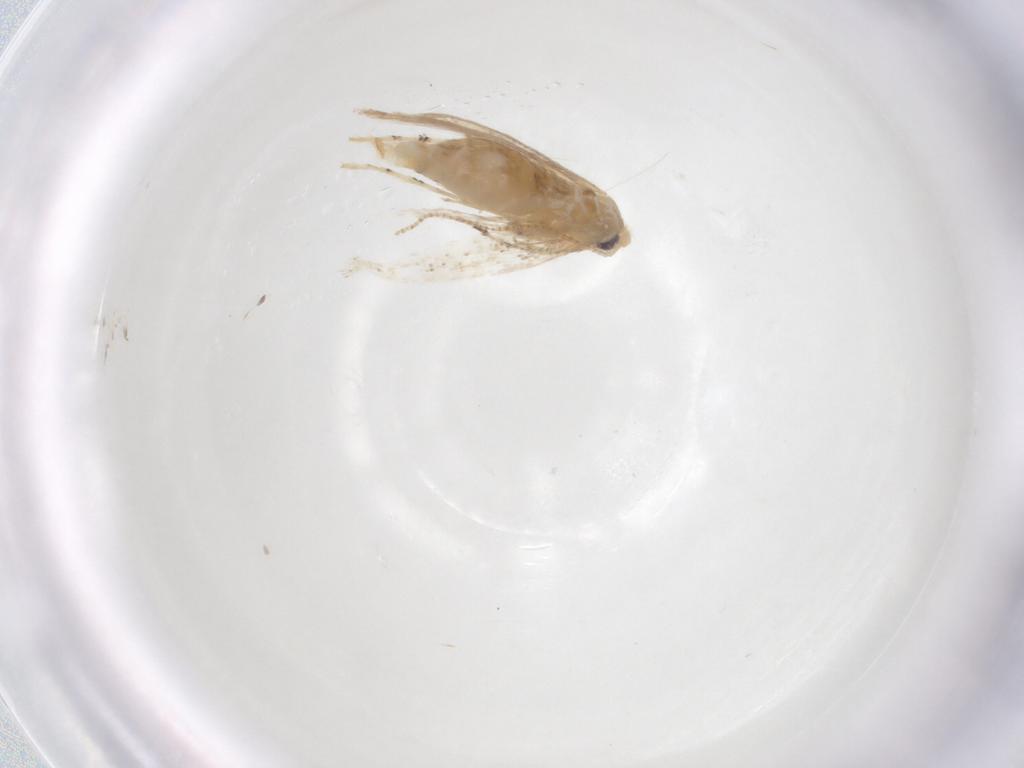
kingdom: Animalia
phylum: Arthropoda
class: Insecta
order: Lepidoptera
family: Gracillariidae
